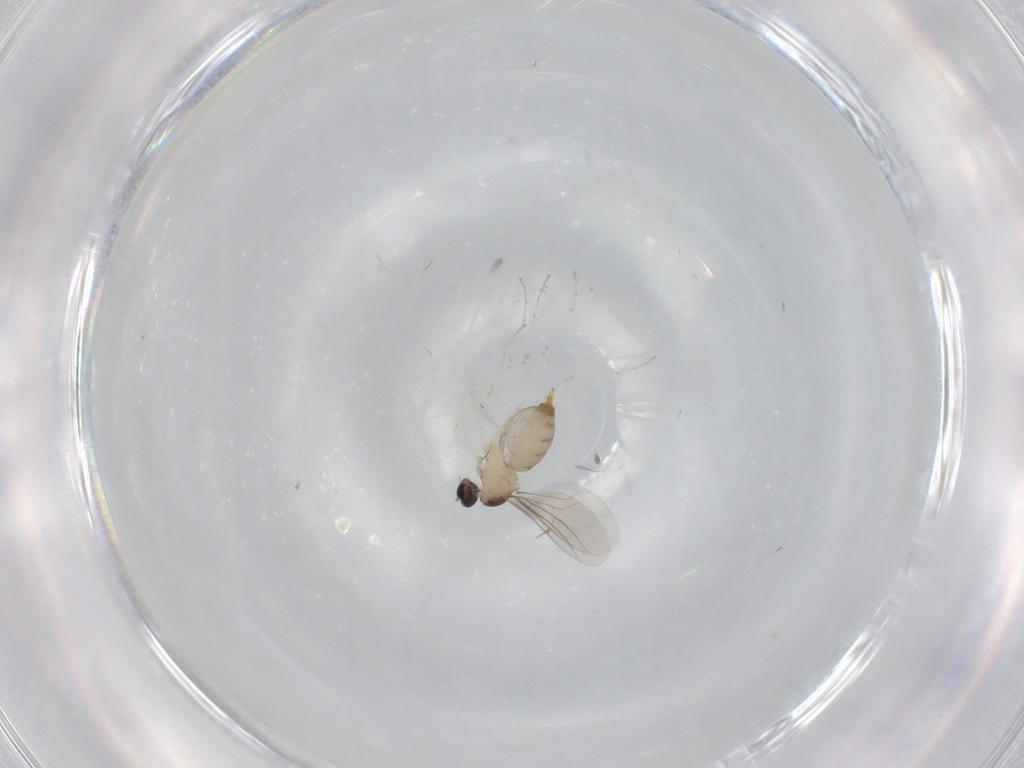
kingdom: Animalia
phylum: Arthropoda
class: Insecta
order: Diptera
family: Cecidomyiidae
